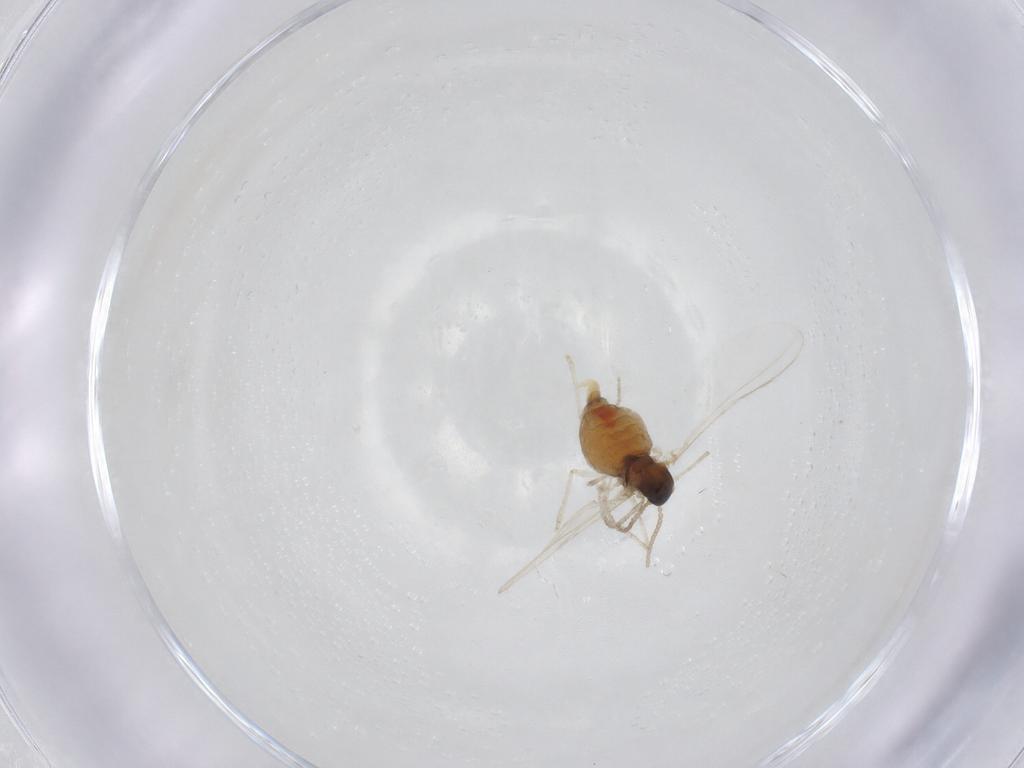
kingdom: Animalia
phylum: Arthropoda
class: Insecta
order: Diptera
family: Cecidomyiidae
